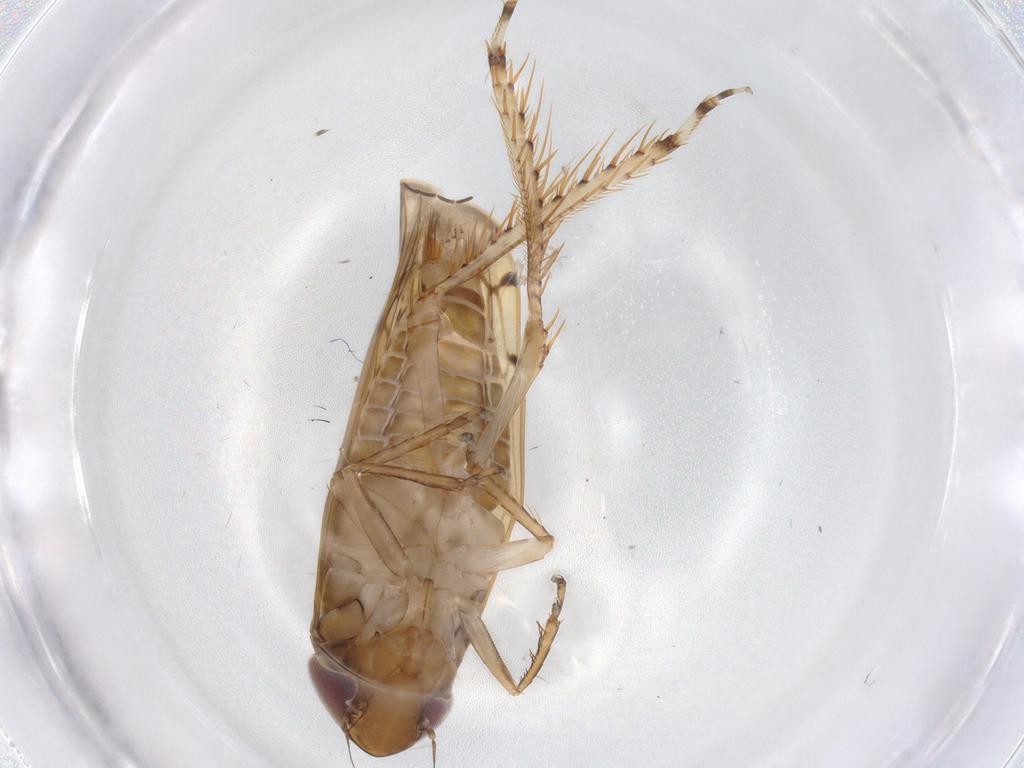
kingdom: Animalia
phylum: Arthropoda
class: Insecta
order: Hemiptera
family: Cicadellidae
